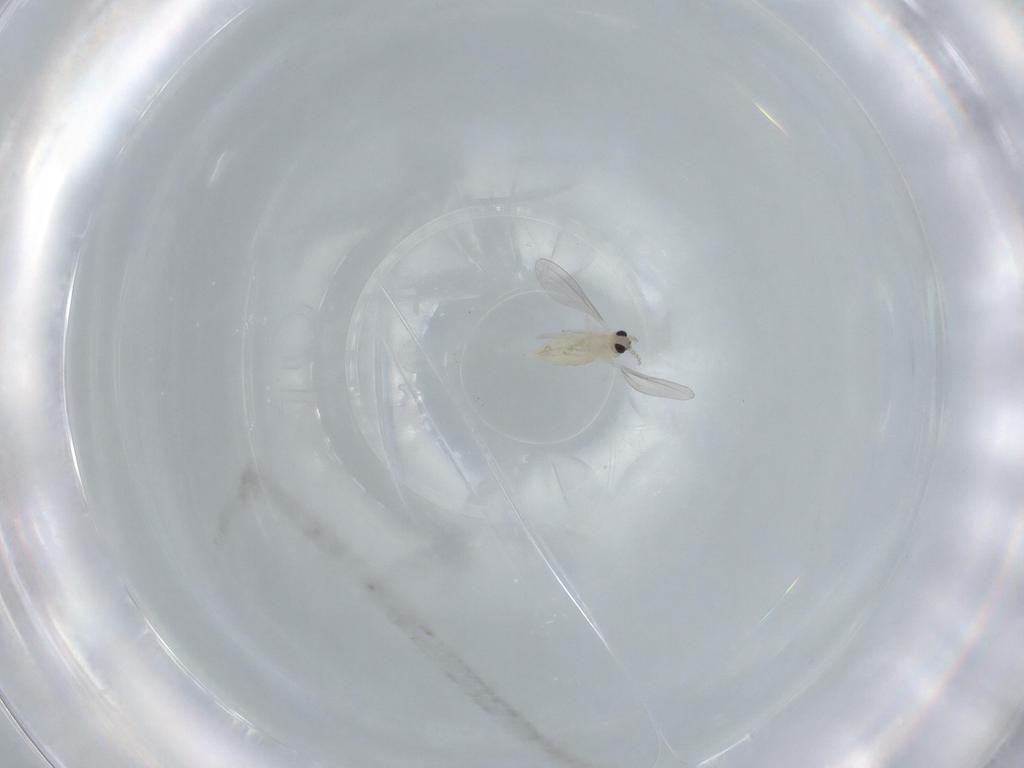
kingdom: Animalia
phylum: Arthropoda
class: Insecta
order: Diptera
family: Cecidomyiidae
